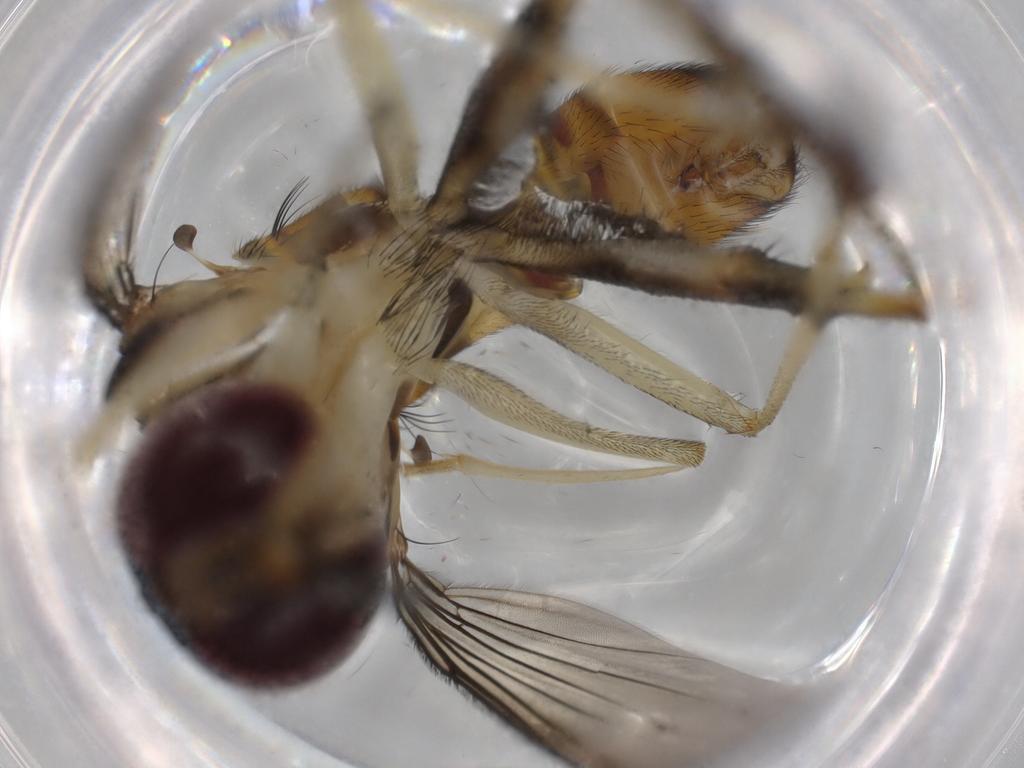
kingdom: Animalia
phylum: Arthropoda
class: Insecta
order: Diptera
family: Conopidae
